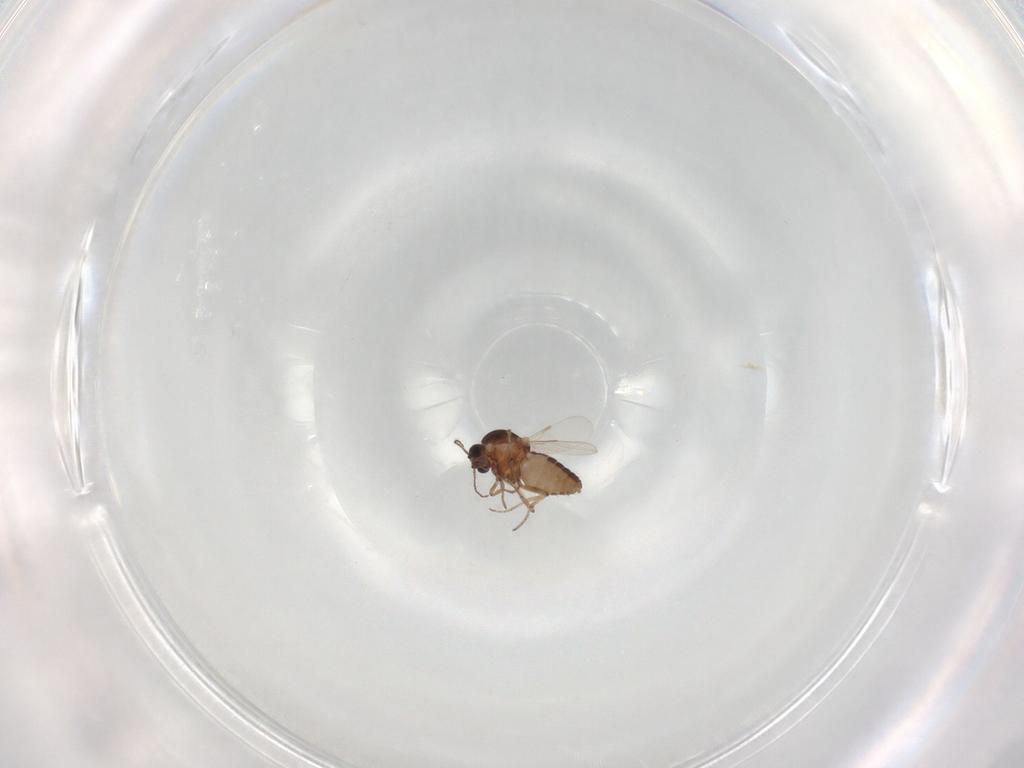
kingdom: Animalia
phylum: Arthropoda
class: Insecta
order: Diptera
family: Ceratopogonidae
